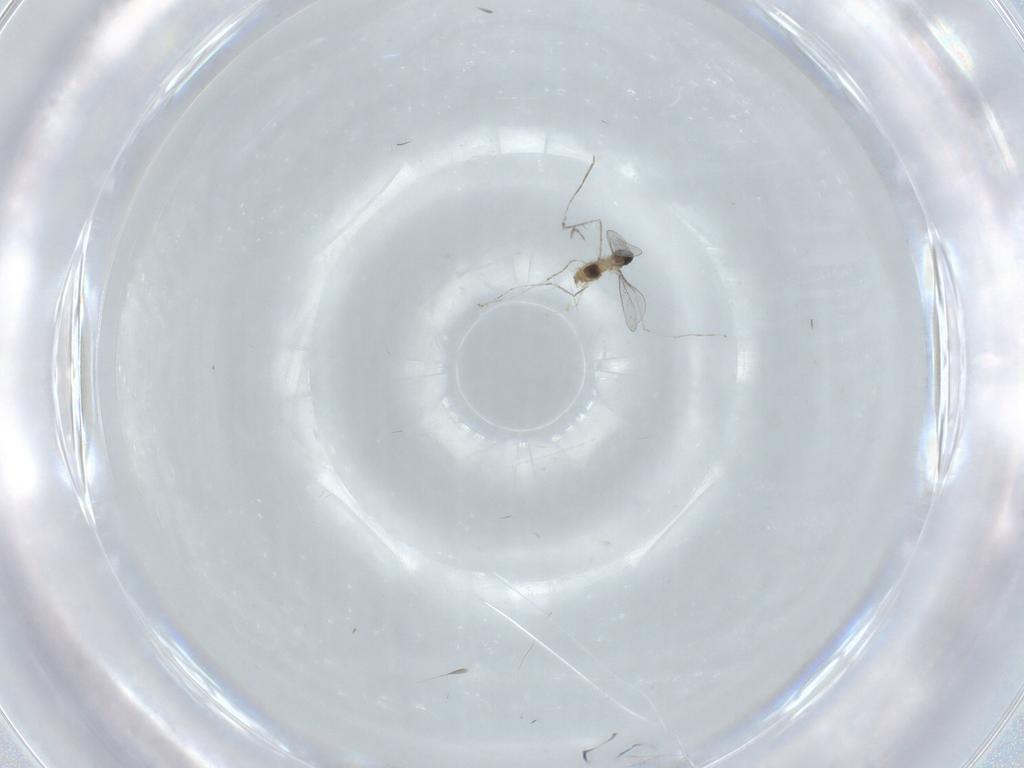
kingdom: Animalia
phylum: Arthropoda
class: Insecta
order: Diptera
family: Cecidomyiidae
